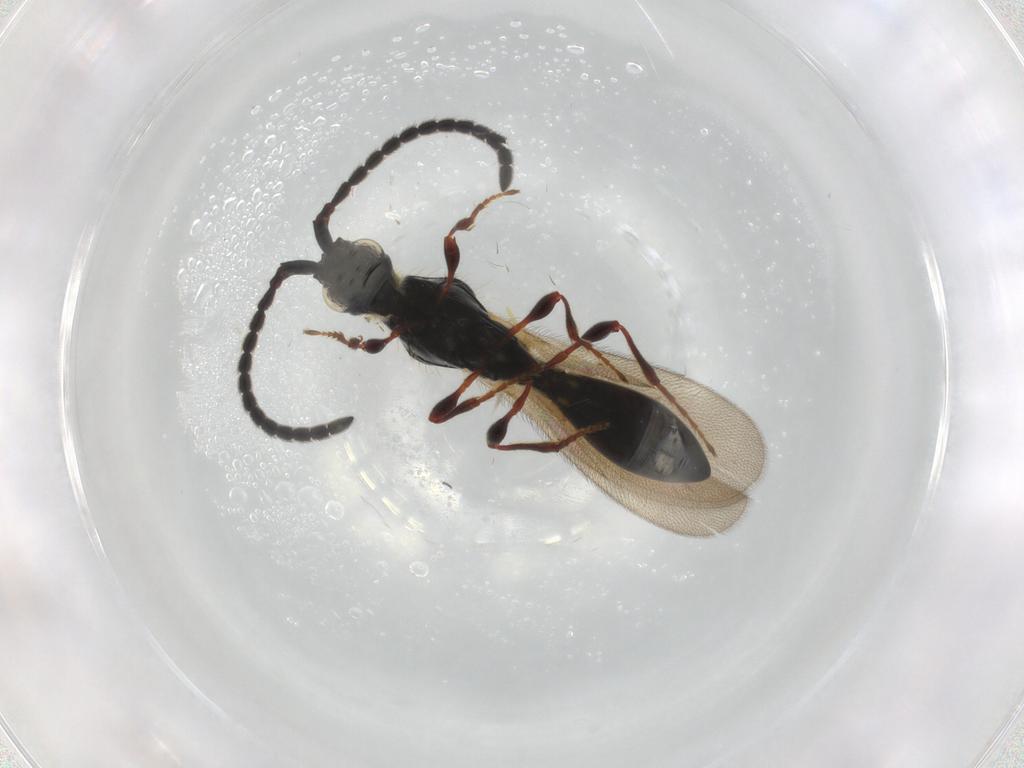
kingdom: Animalia
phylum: Arthropoda
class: Insecta
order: Hymenoptera
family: Diapriidae
